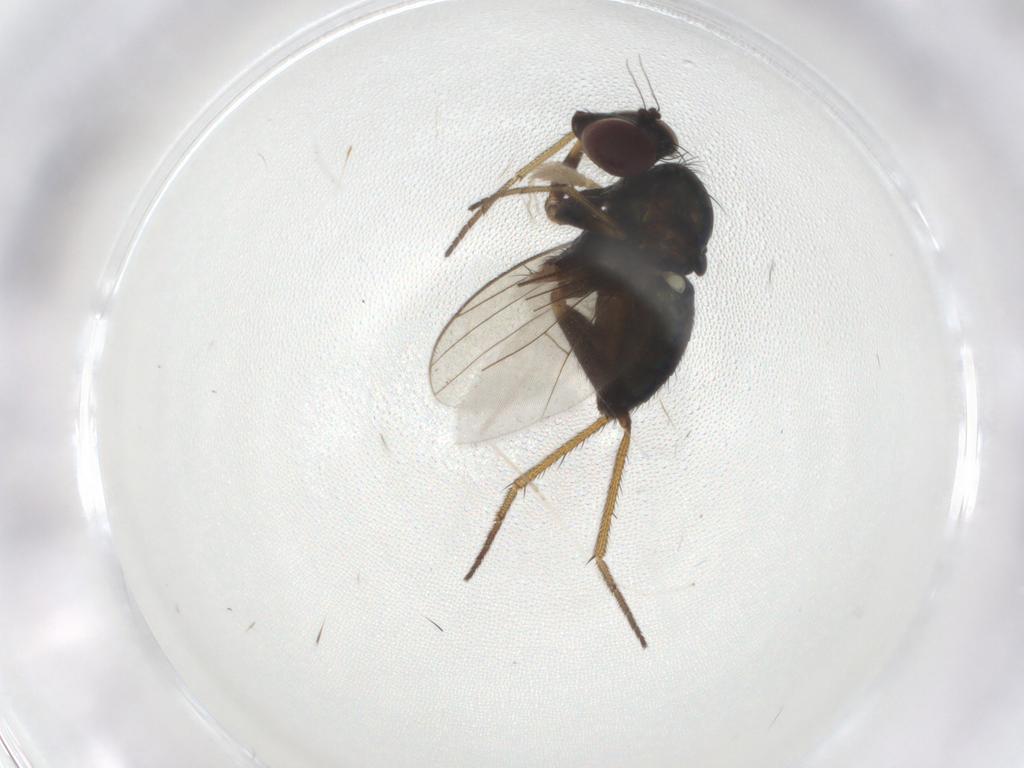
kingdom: Animalia
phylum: Arthropoda
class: Insecta
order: Diptera
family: Cecidomyiidae
